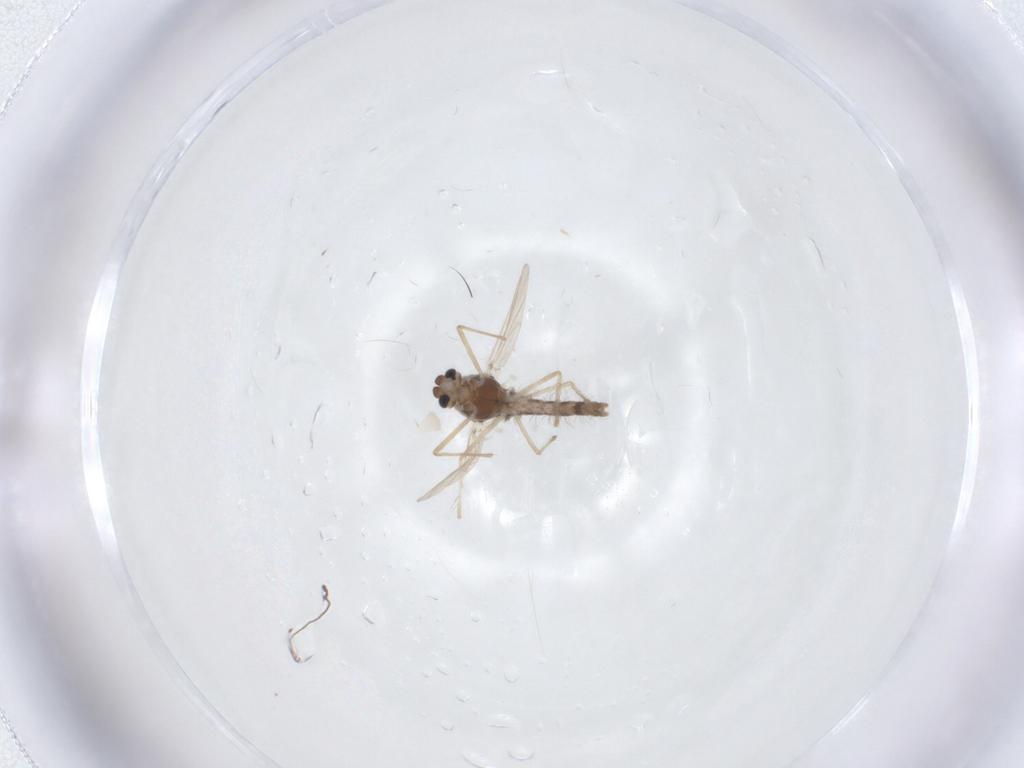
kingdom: Animalia
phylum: Arthropoda
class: Insecta
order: Diptera
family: Chironomidae
